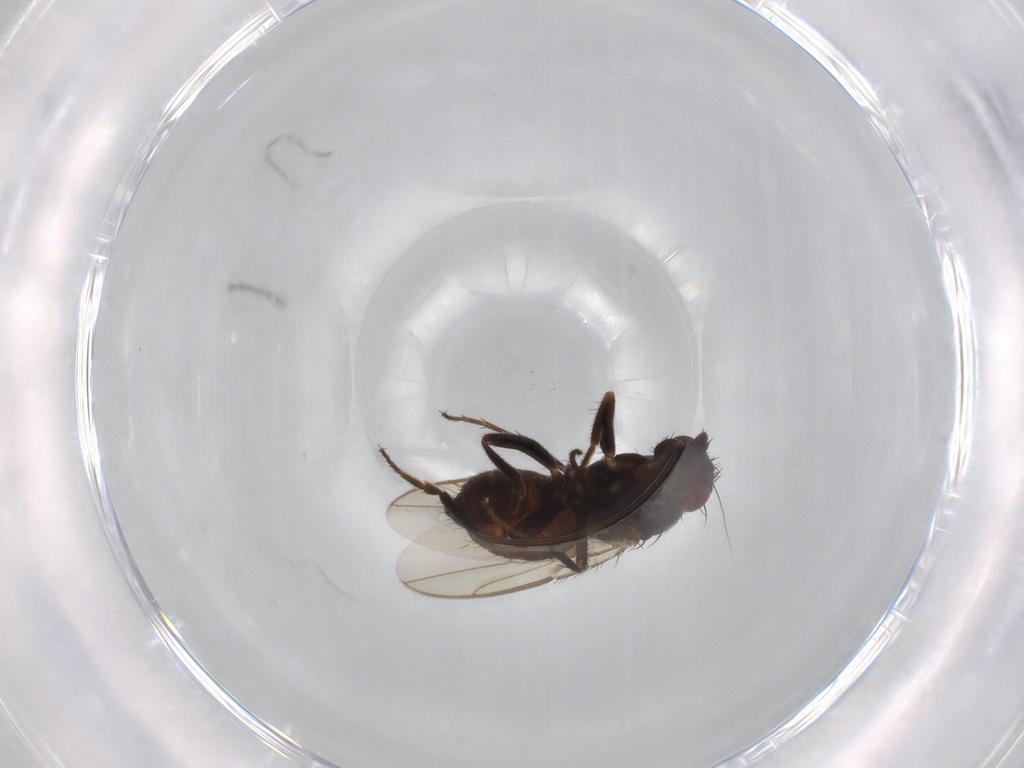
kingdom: Animalia
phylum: Arthropoda
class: Insecta
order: Diptera
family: Sphaeroceridae
